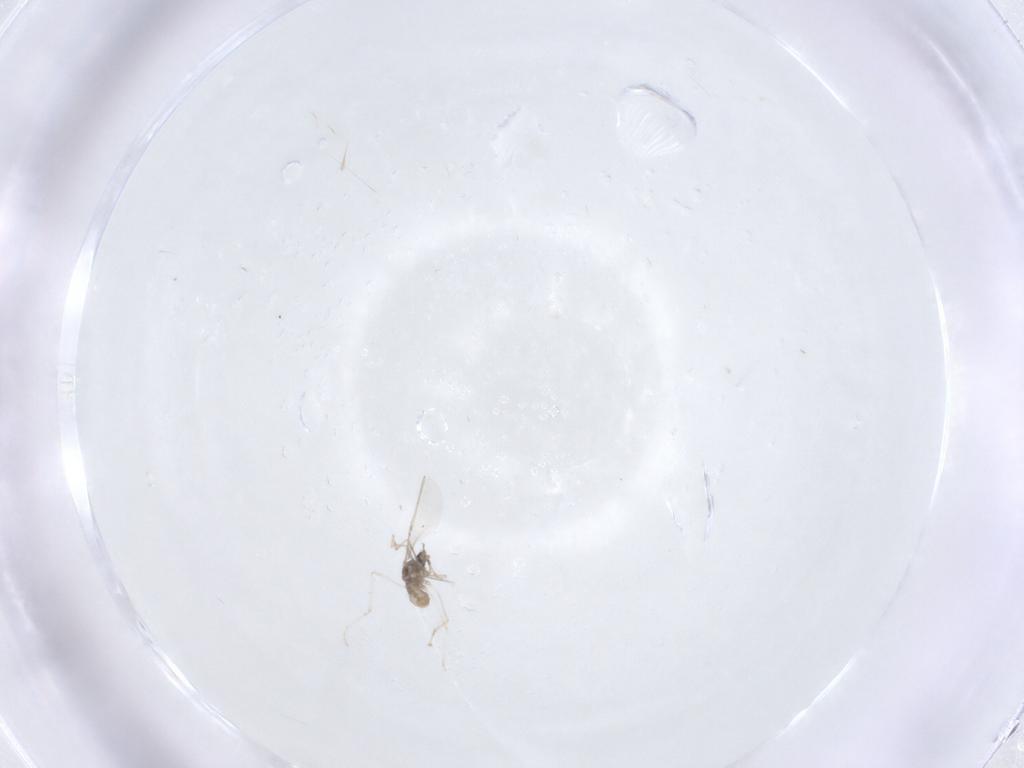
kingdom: Animalia
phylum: Arthropoda
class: Insecta
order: Diptera
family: Cecidomyiidae
